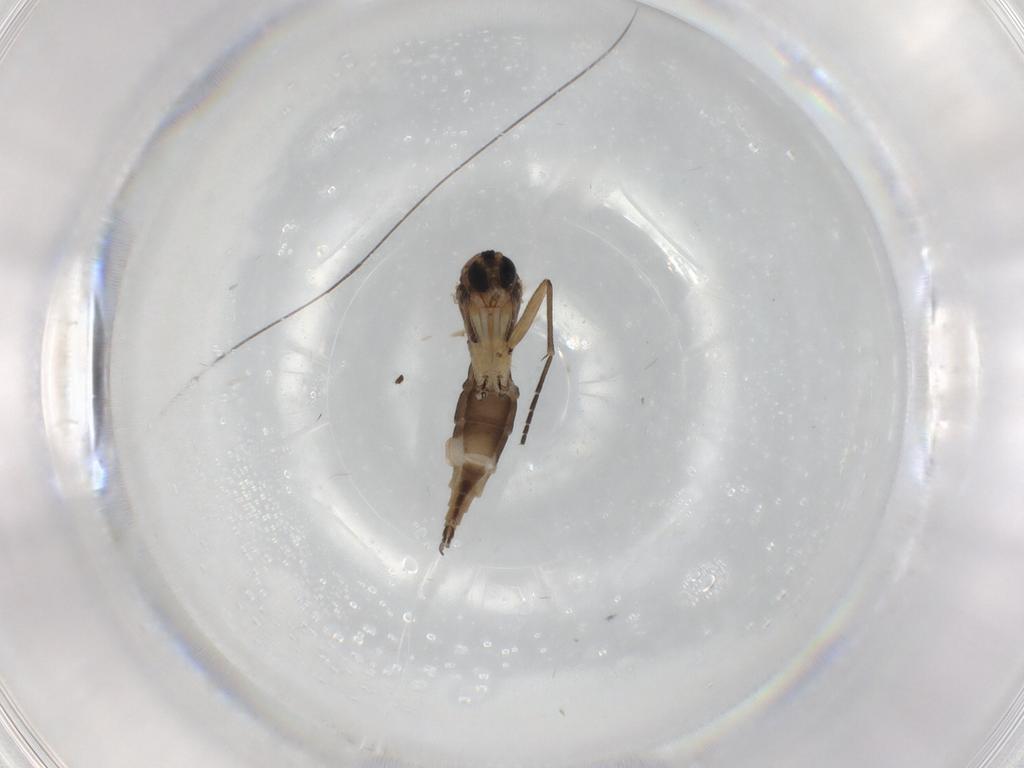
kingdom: Animalia
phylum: Arthropoda
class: Insecta
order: Diptera
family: Sciaridae
